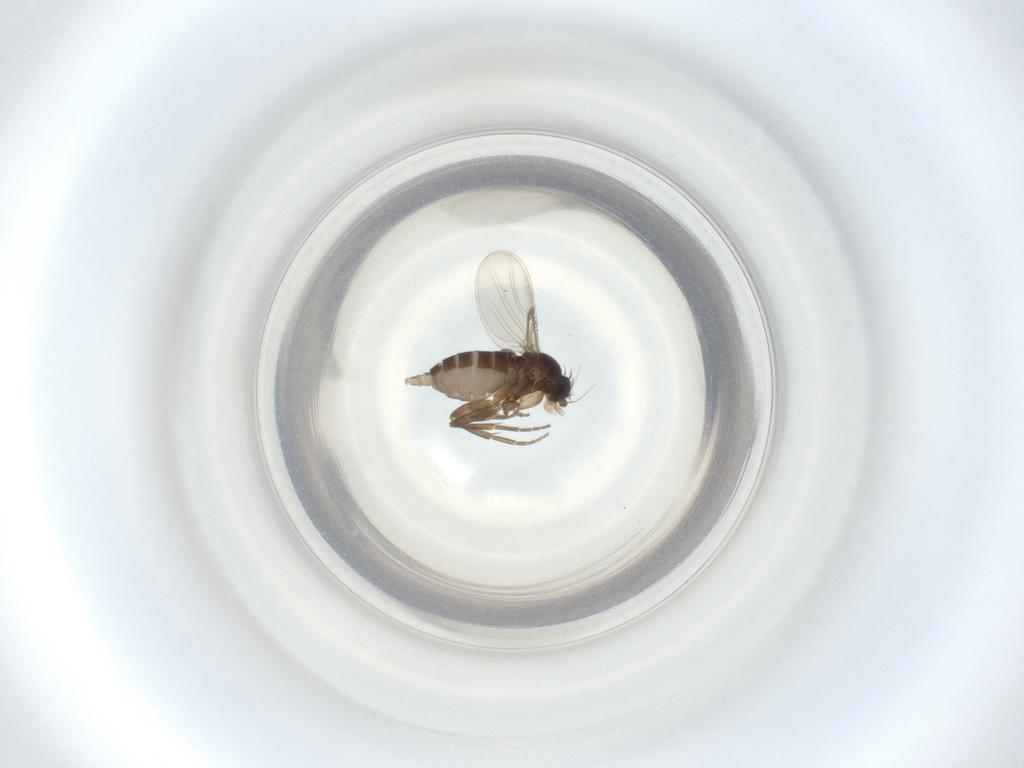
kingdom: Animalia
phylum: Arthropoda
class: Insecta
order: Diptera
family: Phoridae
